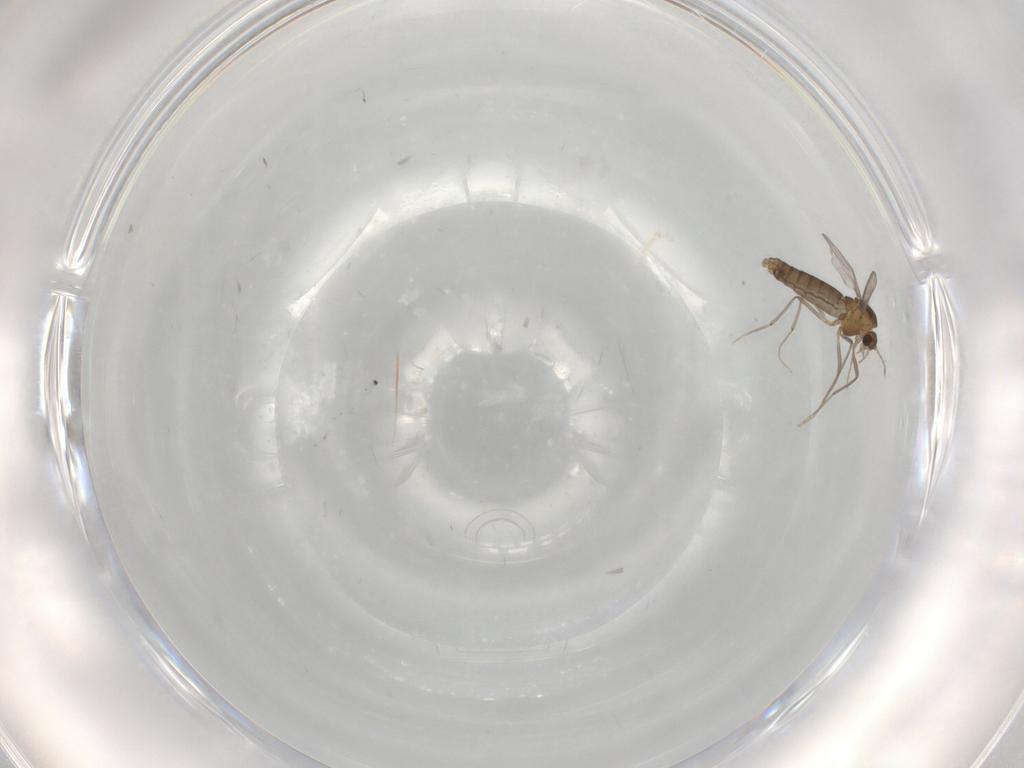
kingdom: Animalia
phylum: Arthropoda
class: Insecta
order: Diptera
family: Chironomidae
